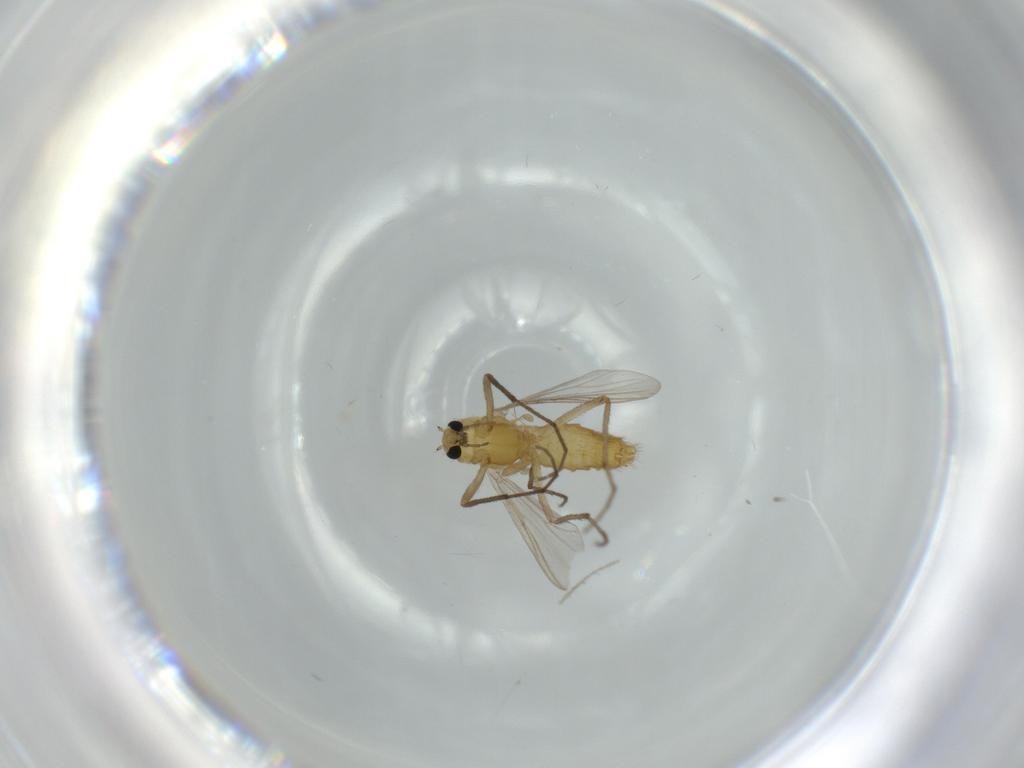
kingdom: Animalia
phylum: Arthropoda
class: Insecta
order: Diptera
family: Chironomidae
